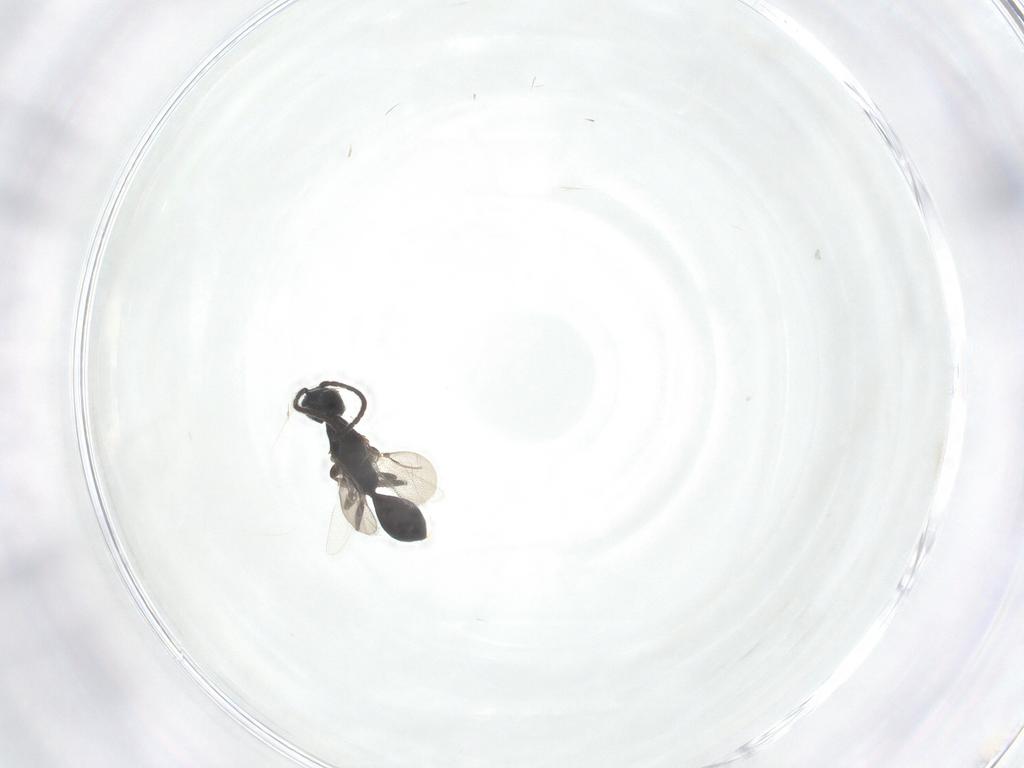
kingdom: Animalia
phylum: Arthropoda
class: Insecta
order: Hymenoptera
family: Bethylidae
